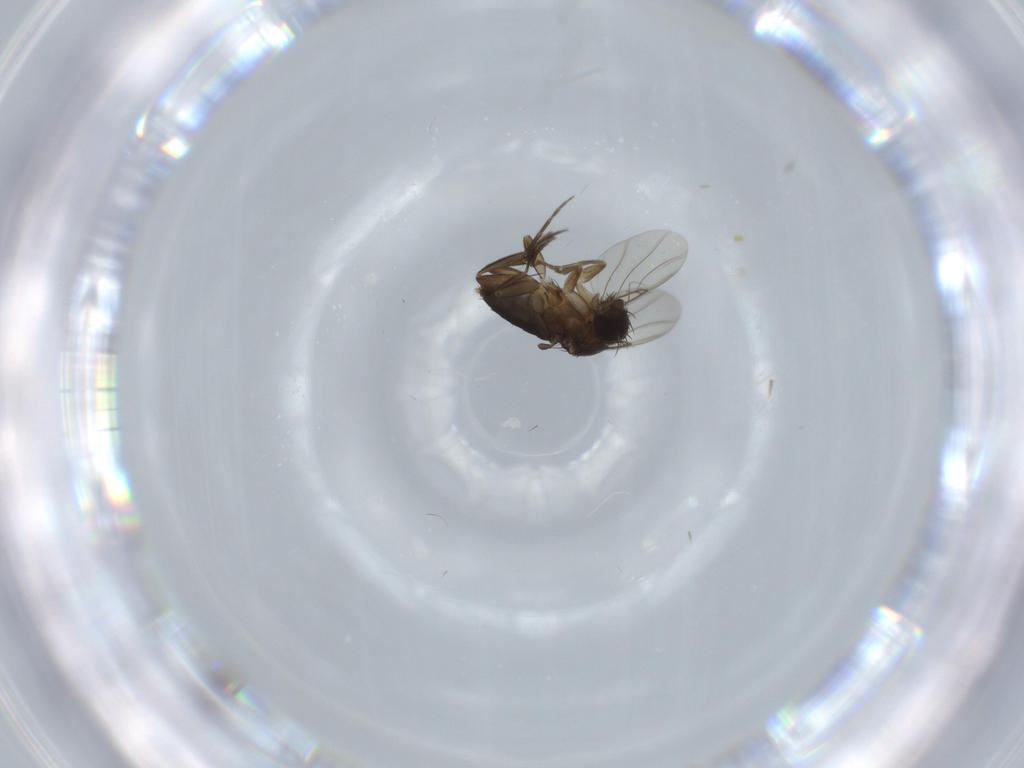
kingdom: Animalia
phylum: Arthropoda
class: Insecta
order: Diptera
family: Phoridae
